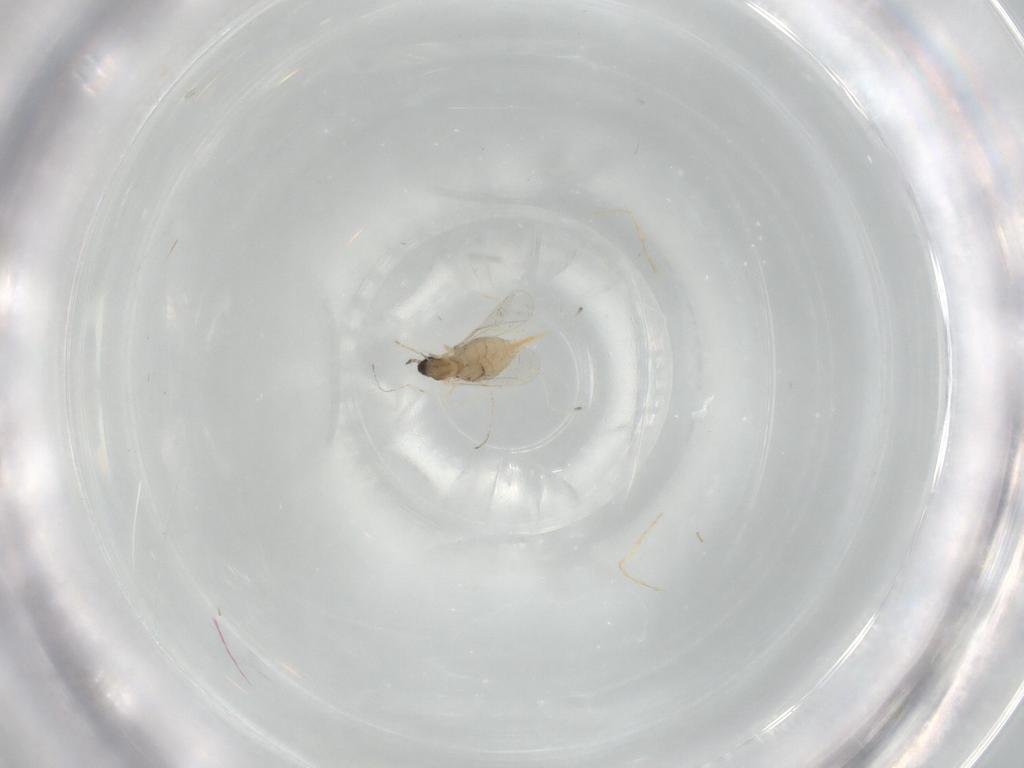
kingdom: Animalia
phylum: Arthropoda
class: Insecta
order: Diptera
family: Cecidomyiidae
